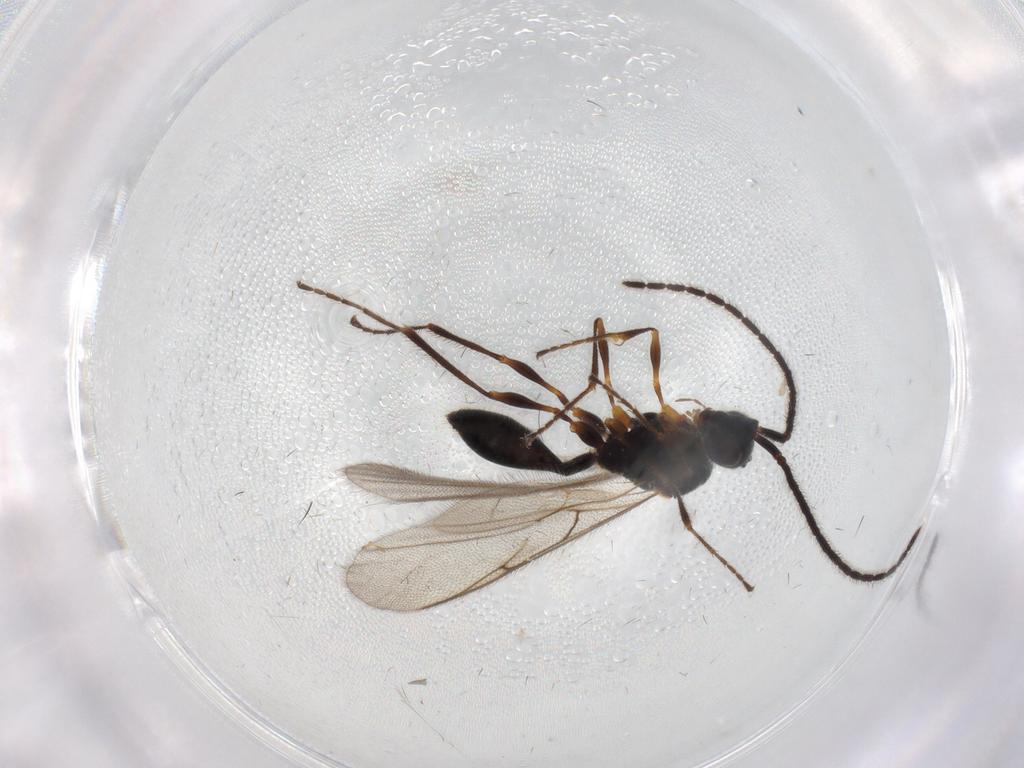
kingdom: Animalia
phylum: Arthropoda
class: Insecta
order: Hymenoptera
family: Diapriidae
